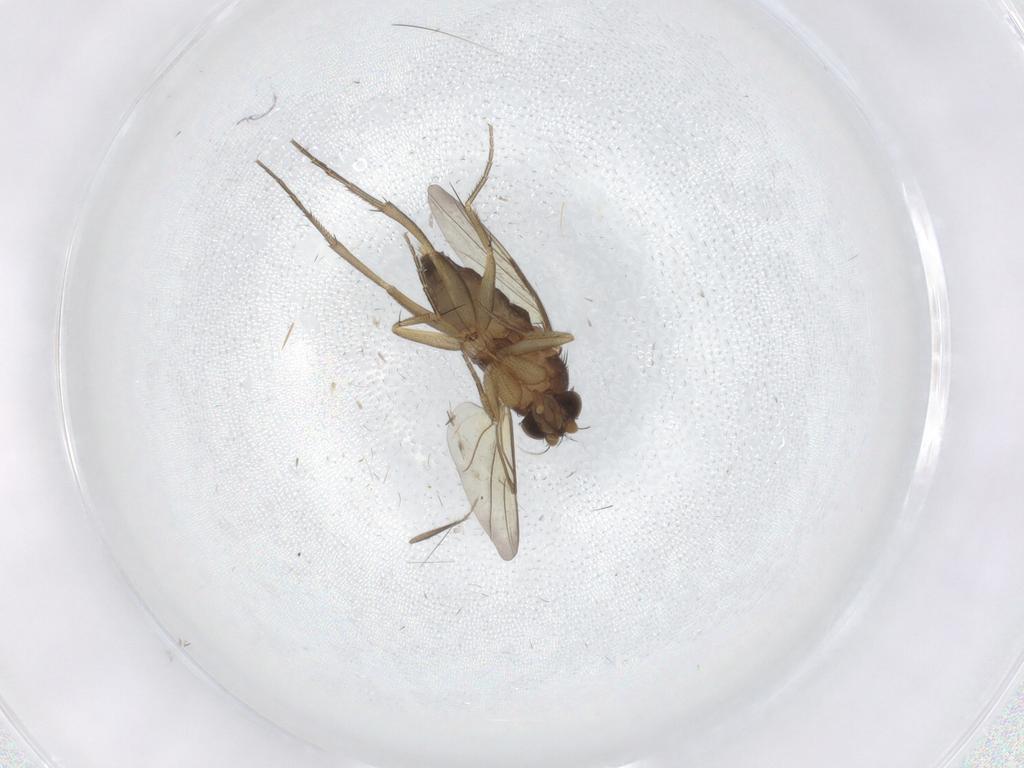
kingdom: Animalia
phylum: Arthropoda
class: Insecta
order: Diptera
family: Phoridae
